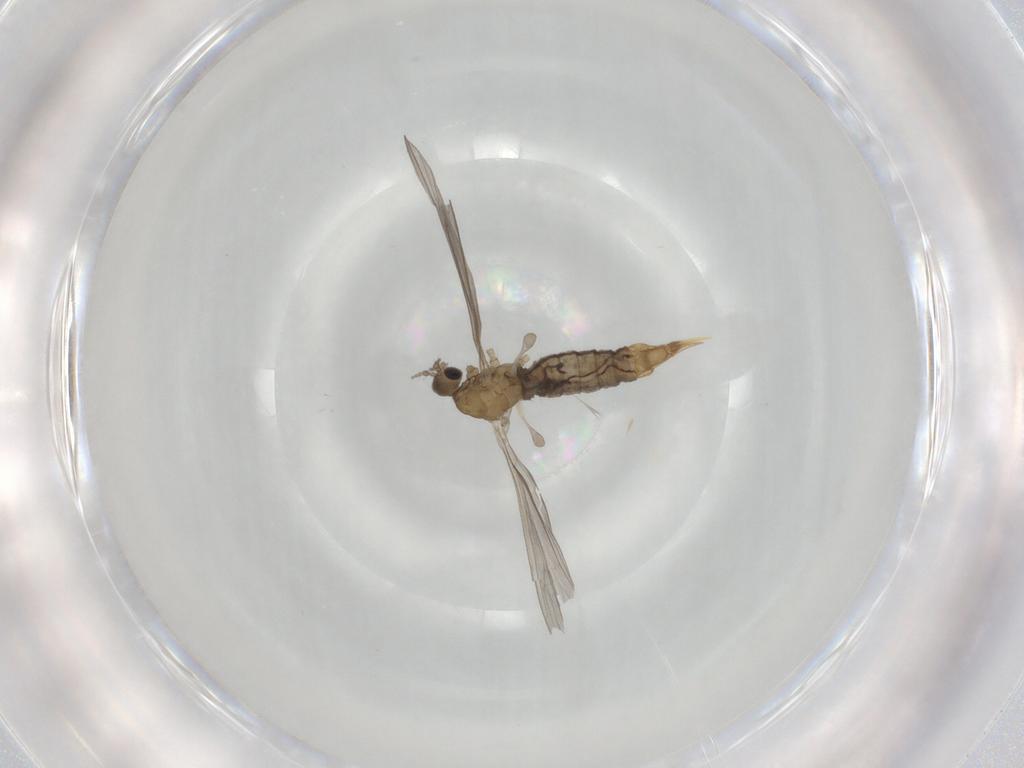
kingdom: Animalia
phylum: Arthropoda
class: Insecta
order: Diptera
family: Limoniidae
